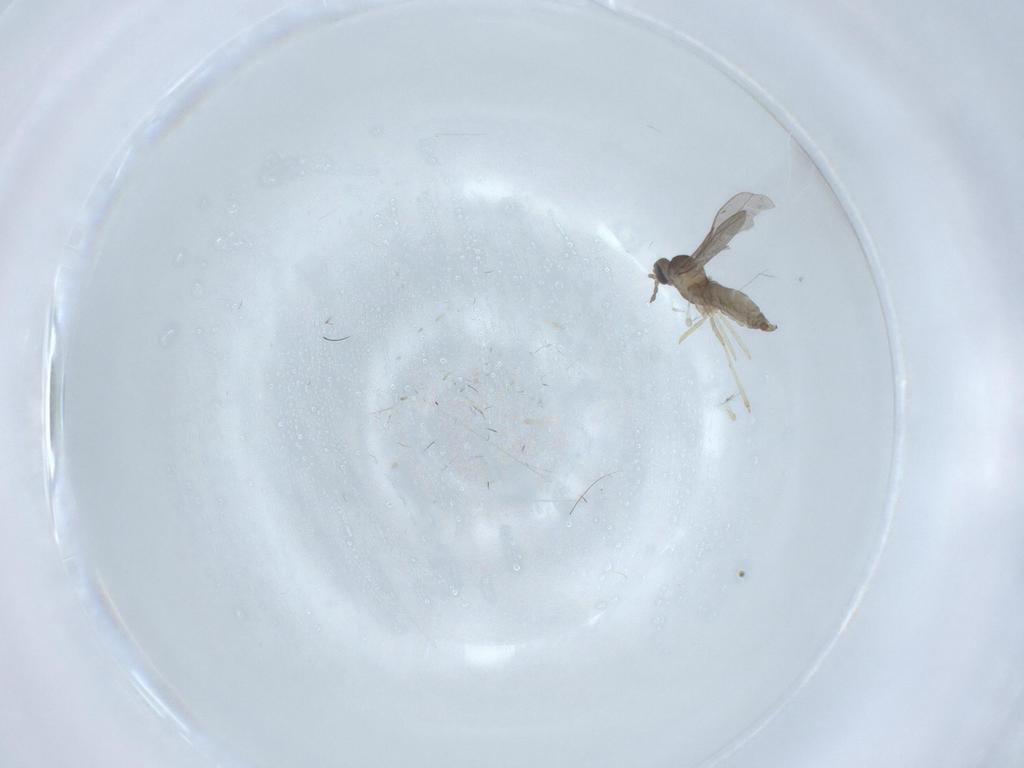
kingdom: Animalia
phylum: Arthropoda
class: Insecta
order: Diptera
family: Tabanidae
